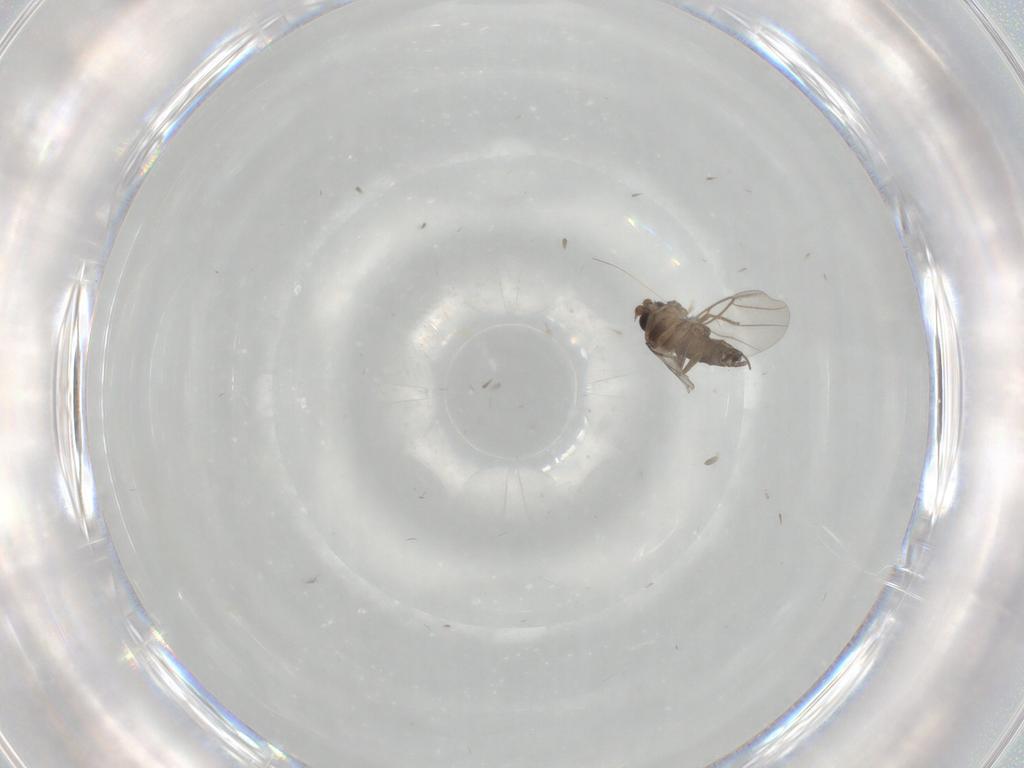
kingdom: Animalia
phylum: Arthropoda
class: Insecta
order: Diptera
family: Phoridae
